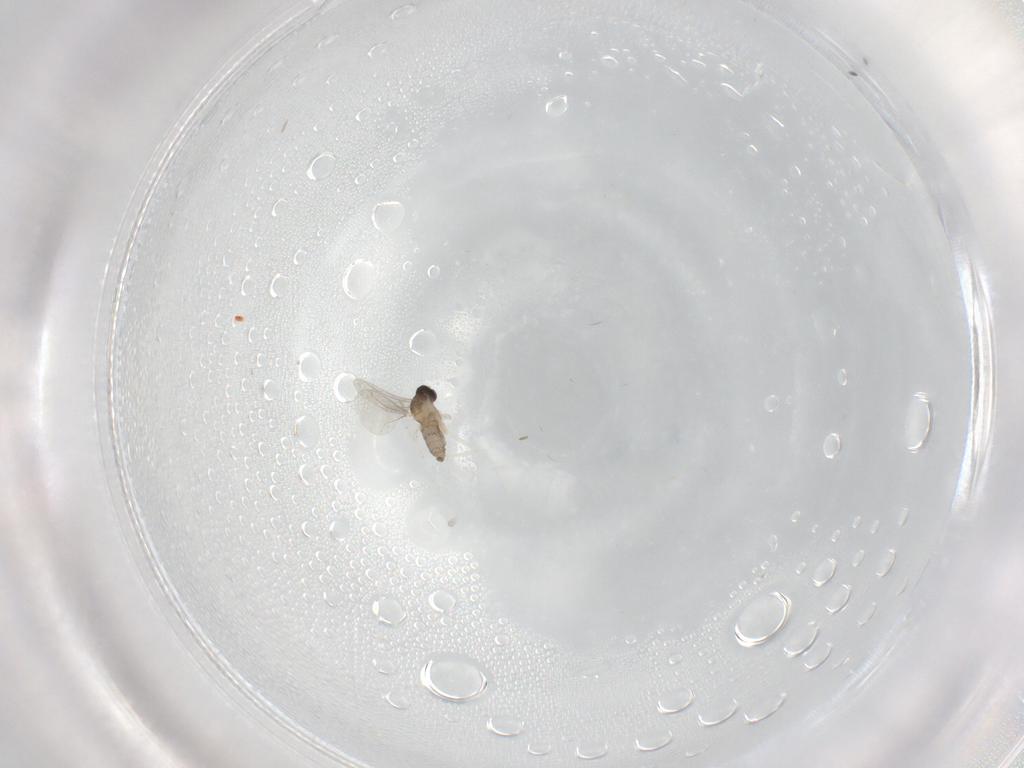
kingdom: Animalia
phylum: Arthropoda
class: Insecta
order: Diptera
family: Cecidomyiidae
